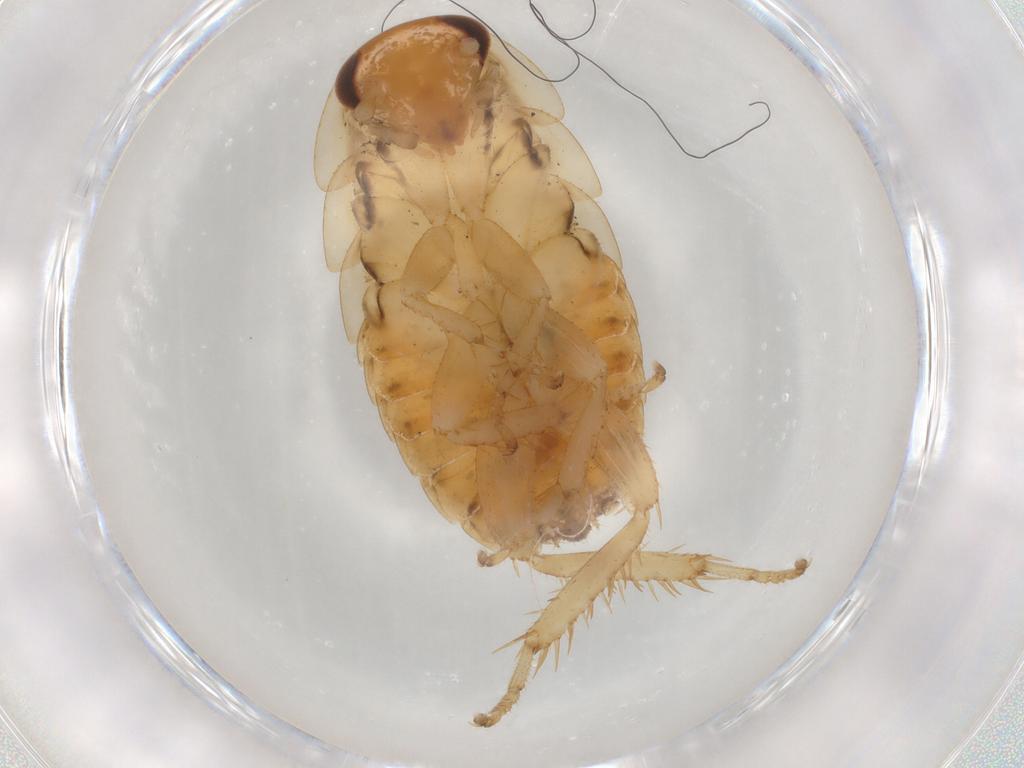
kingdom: Animalia
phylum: Arthropoda
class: Insecta
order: Blattodea
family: Ectobiidae
